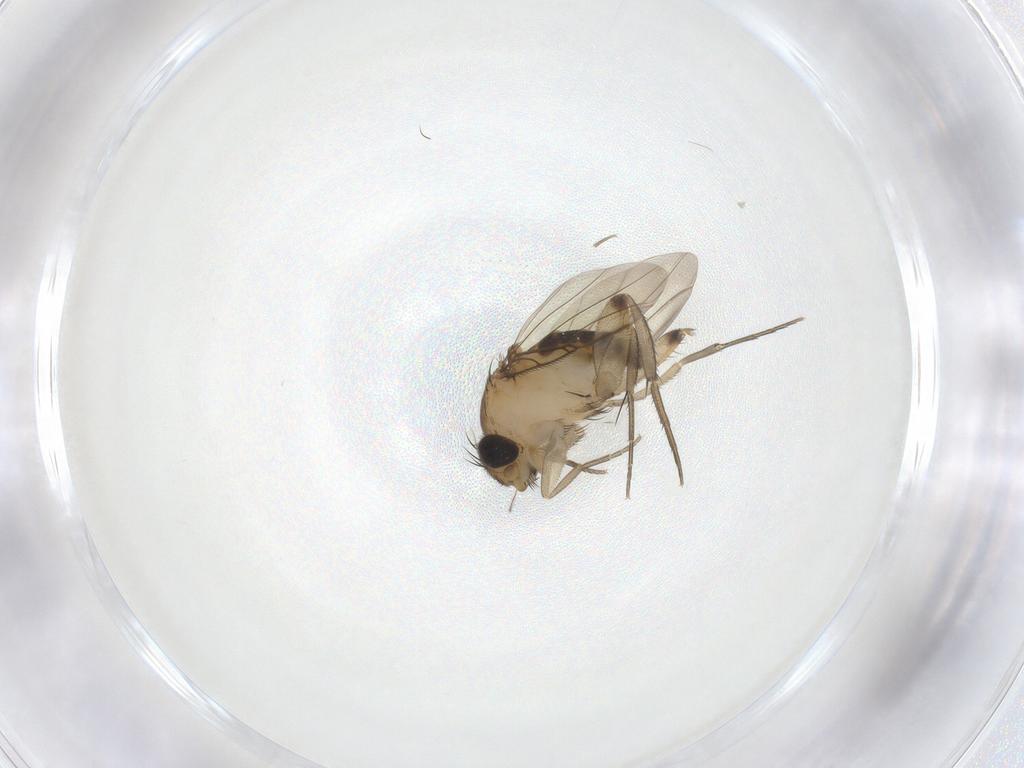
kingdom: Animalia
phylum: Arthropoda
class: Insecta
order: Diptera
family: Phoridae
